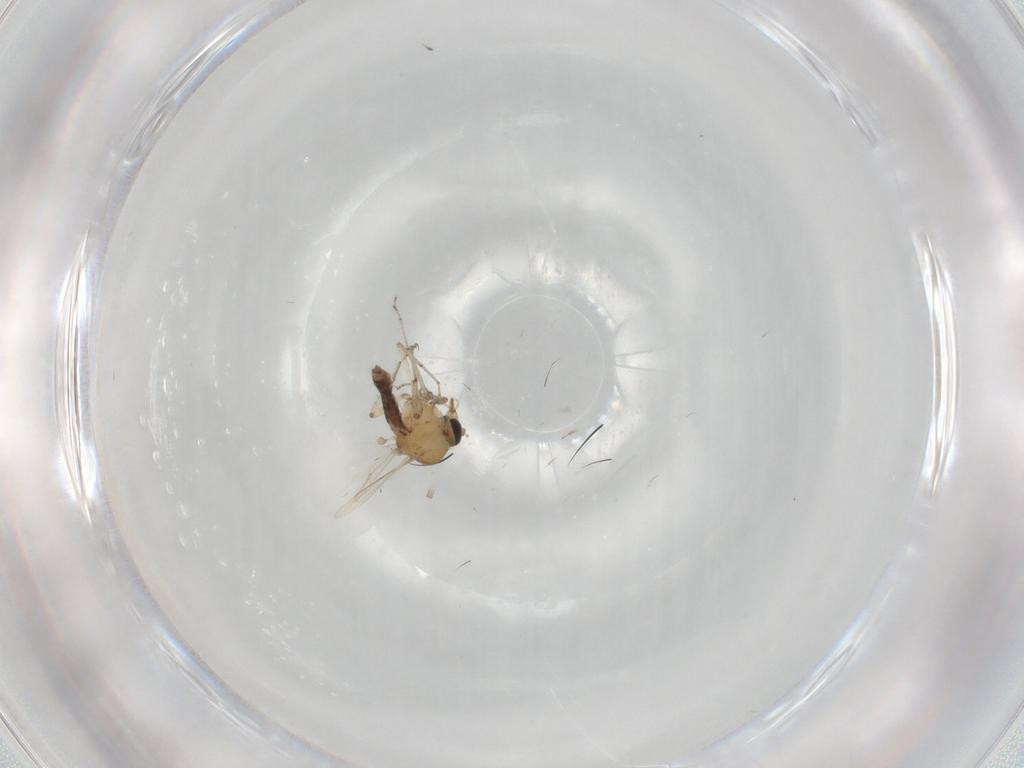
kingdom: Animalia
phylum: Arthropoda
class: Insecta
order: Diptera
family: Ceratopogonidae
